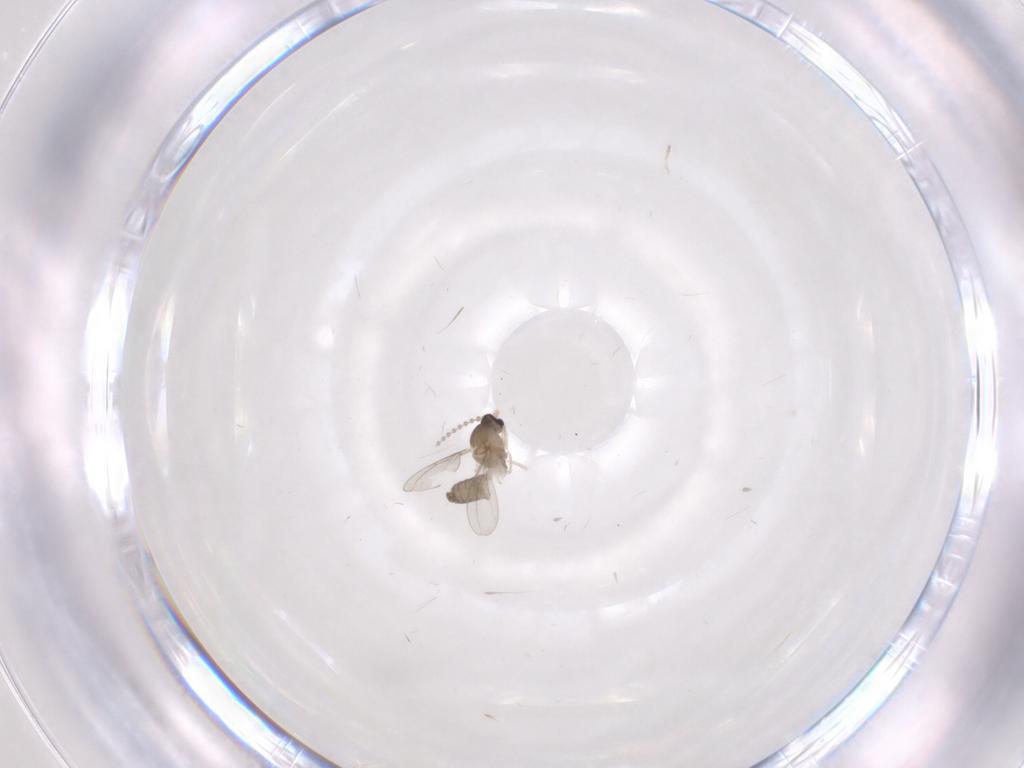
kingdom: Animalia
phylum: Arthropoda
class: Insecta
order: Diptera
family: Cecidomyiidae
